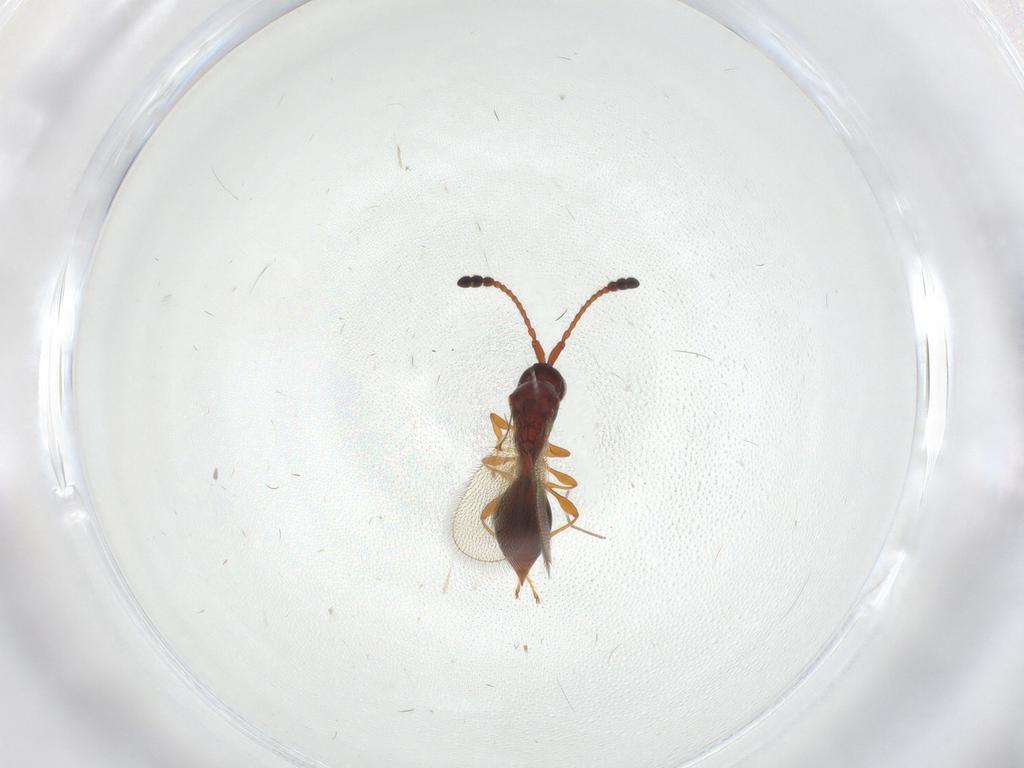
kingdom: Animalia
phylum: Arthropoda
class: Insecta
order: Hymenoptera
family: Diapriidae
